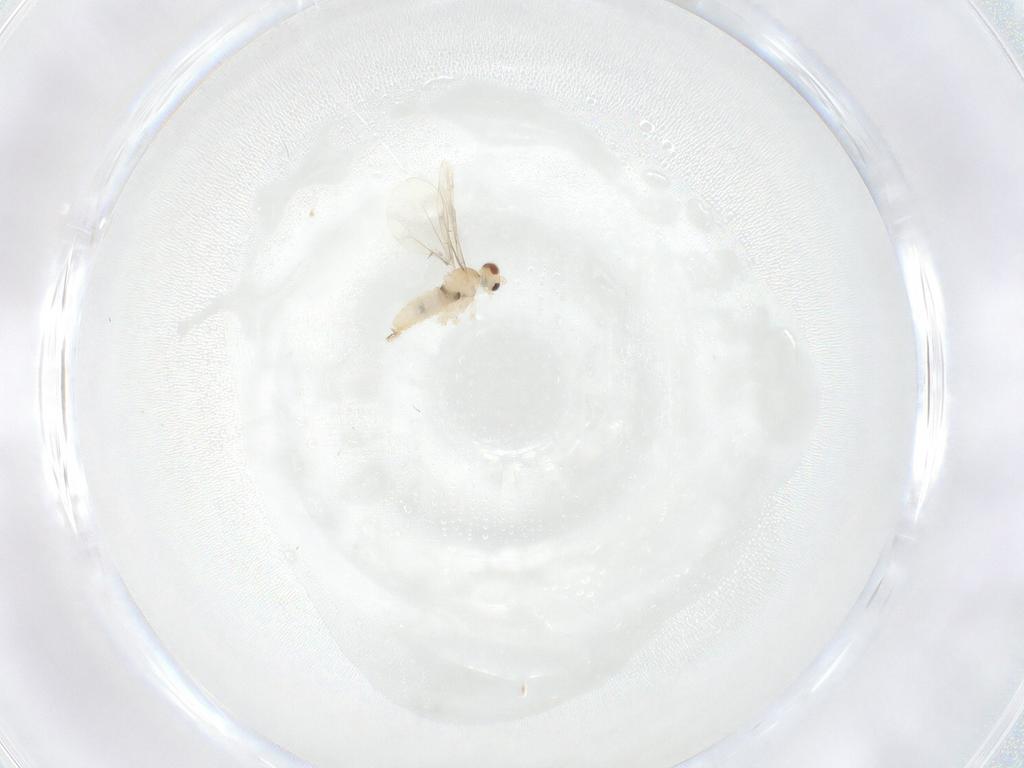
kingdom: Animalia
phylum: Arthropoda
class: Insecta
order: Diptera
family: Cecidomyiidae
